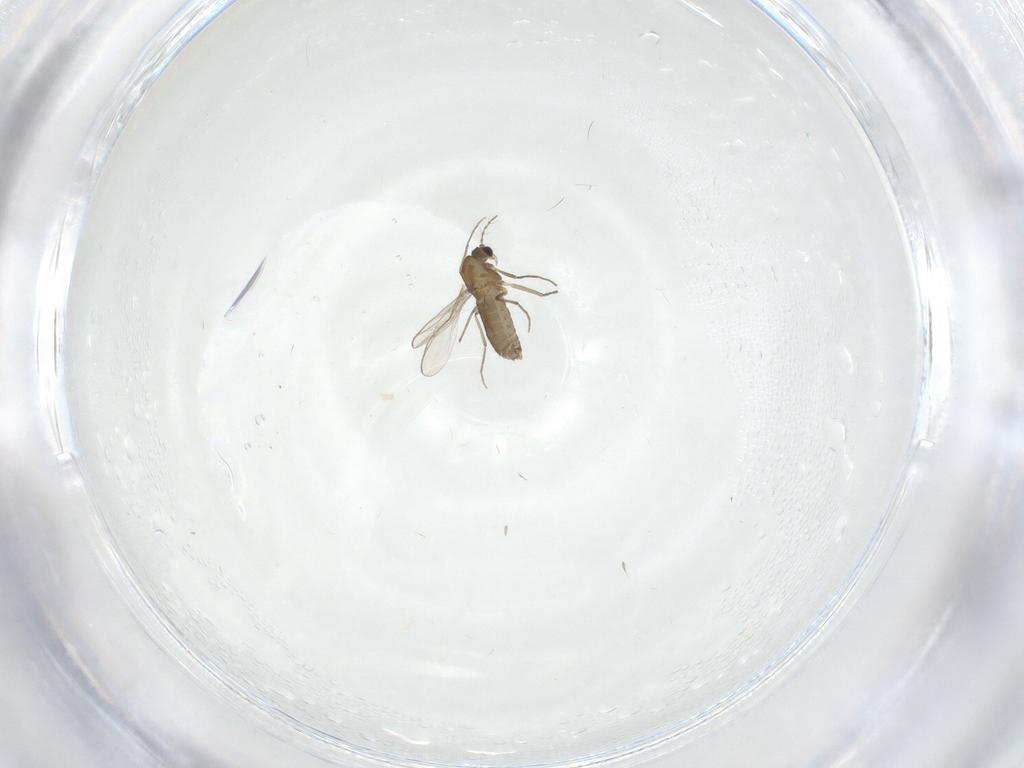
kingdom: Animalia
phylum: Arthropoda
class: Insecta
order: Diptera
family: Chironomidae
